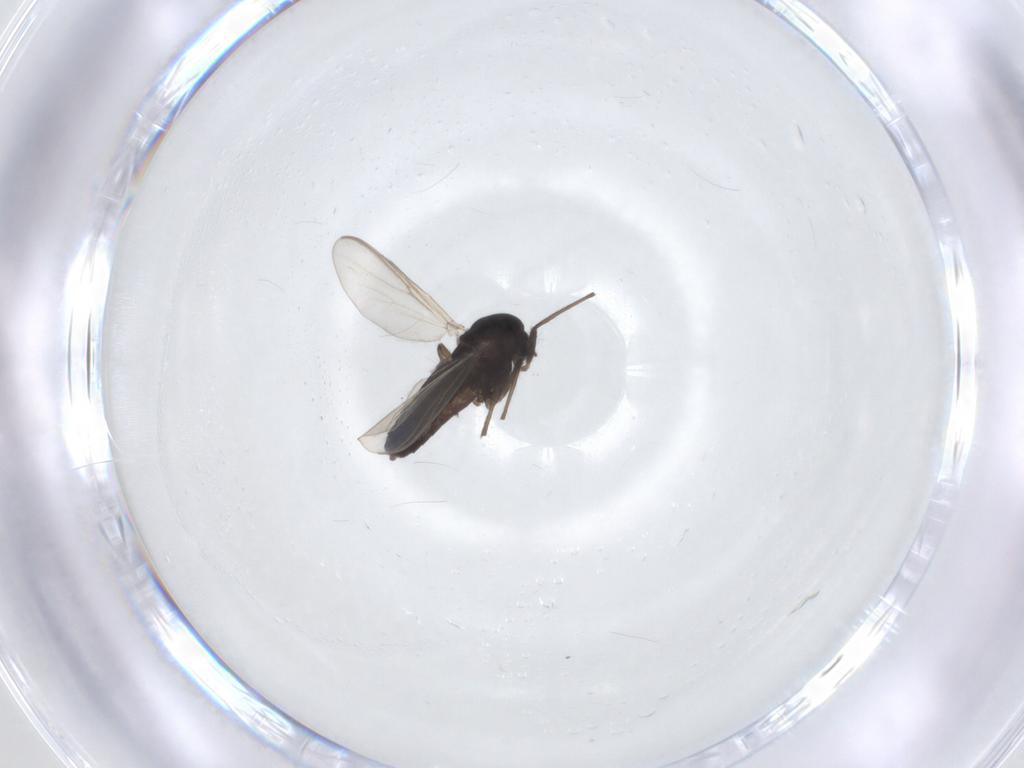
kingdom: Animalia
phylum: Arthropoda
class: Insecta
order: Diptera
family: Chironomidae
